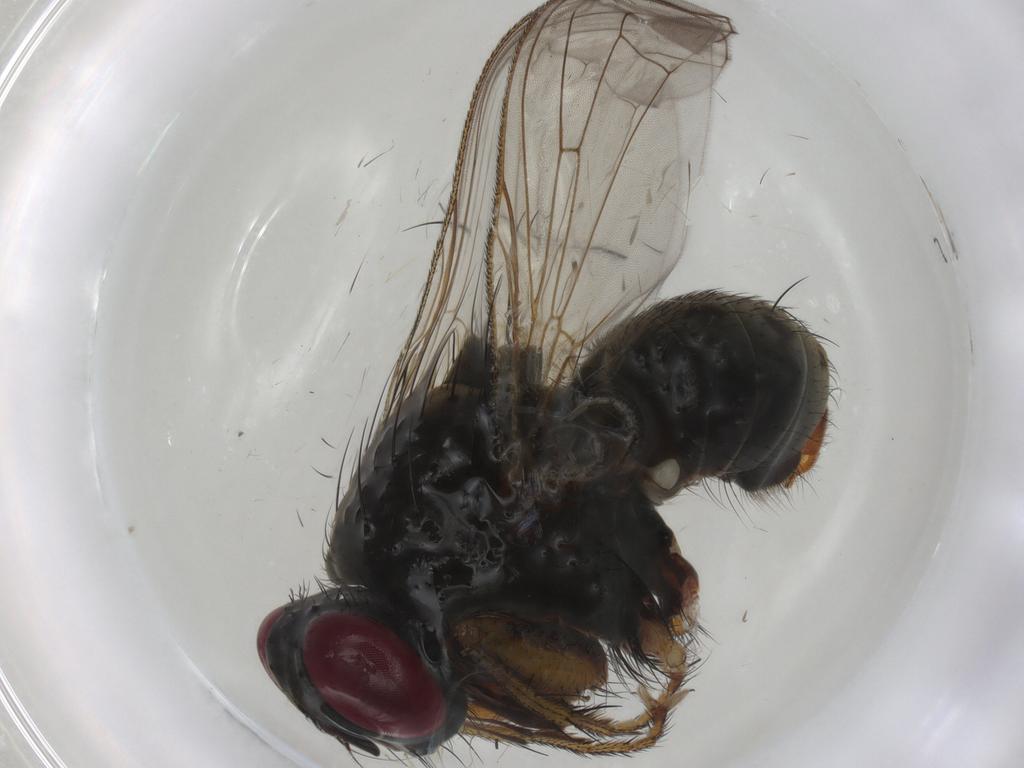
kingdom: Animalia
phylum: Arthropoda
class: Insecta
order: Diptera
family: Muscidae
